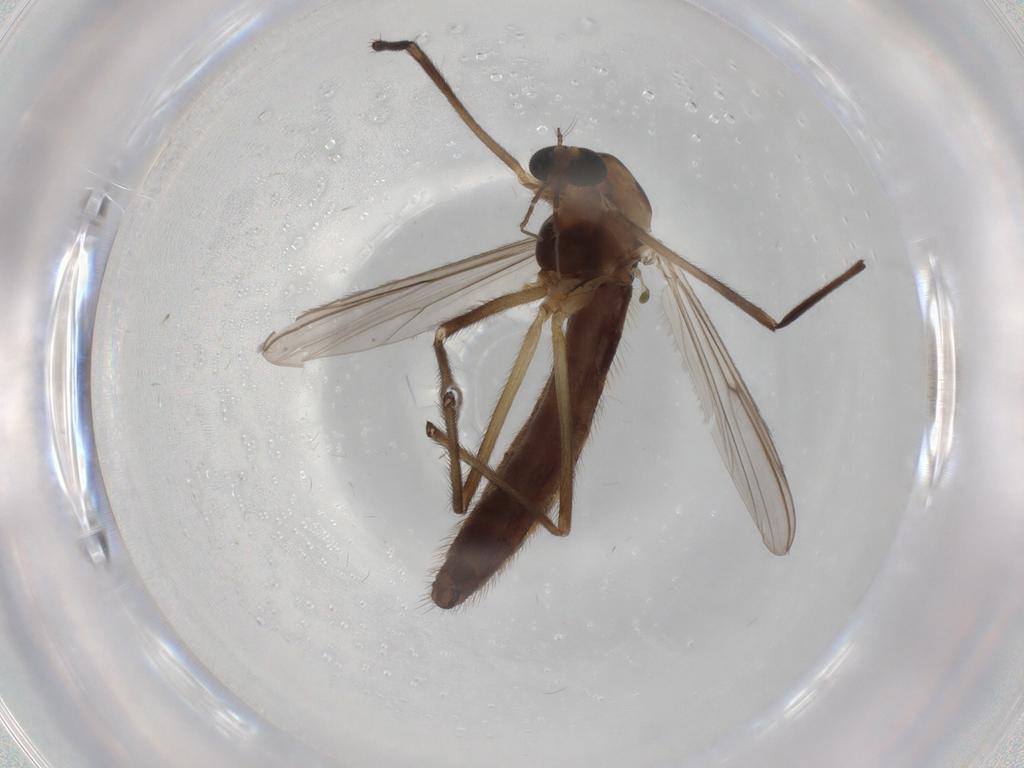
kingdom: Animalia
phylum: Arthropoda
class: Insecta
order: Diptera
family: Chironomidae
